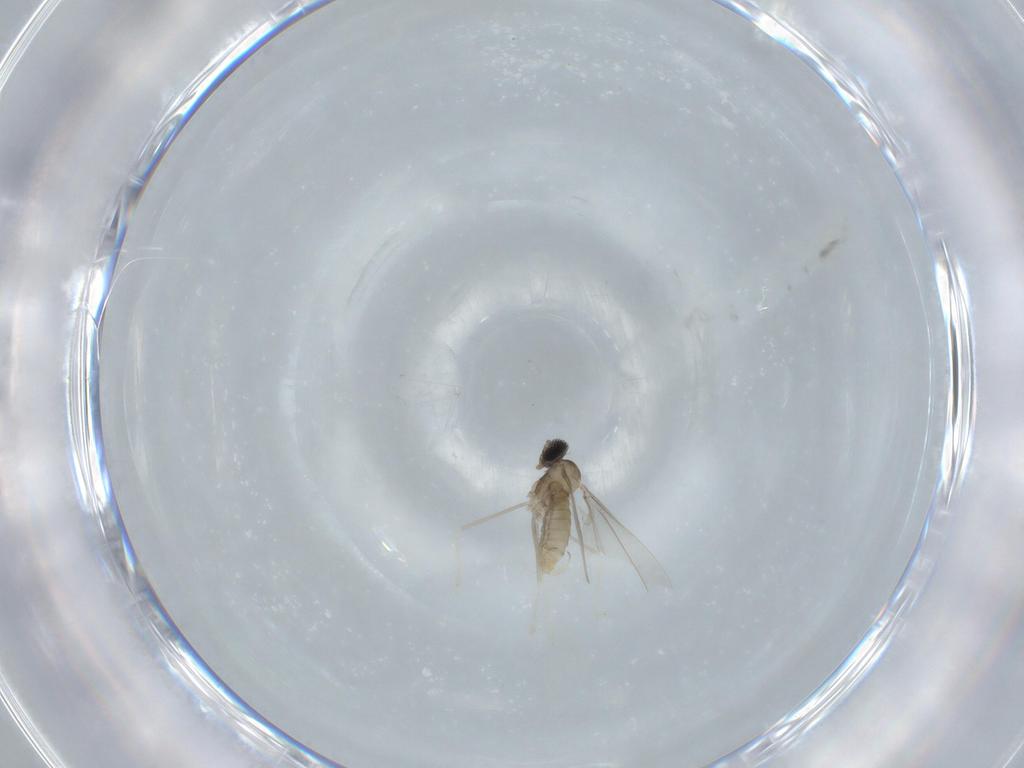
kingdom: Animalia
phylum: Arthropoda
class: Insecta
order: Diptera
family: Cecidomyiidae
